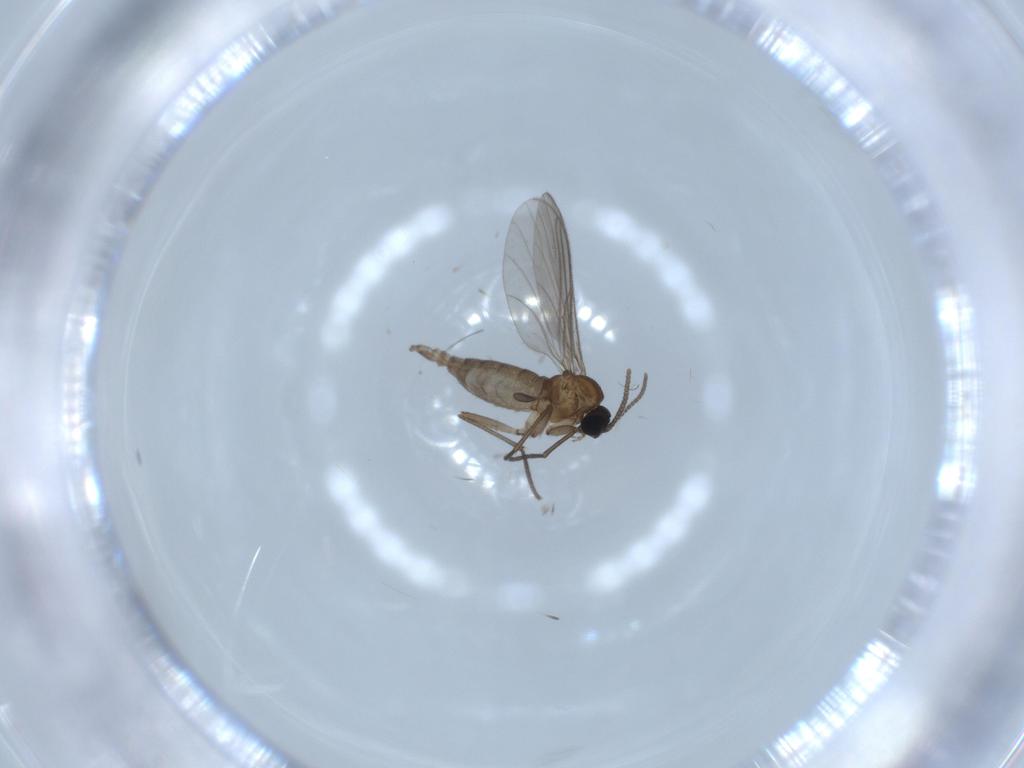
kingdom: Animalia
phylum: Arthropoda
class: Insecta
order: Diptera
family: Sciaridae
